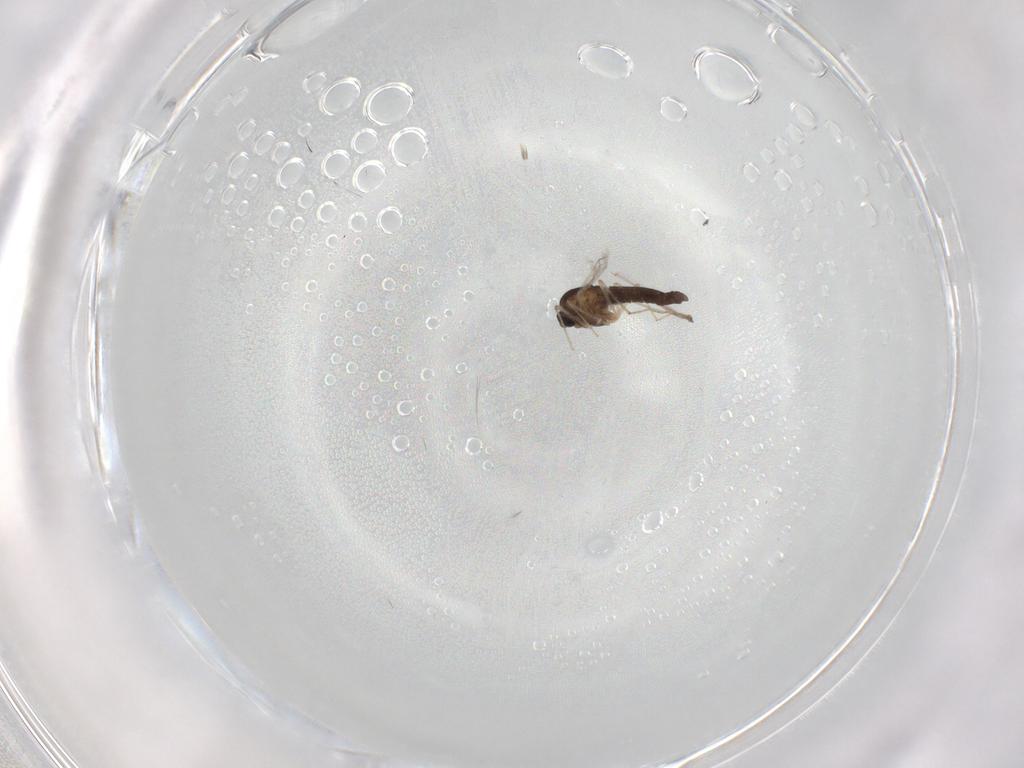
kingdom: Animalia
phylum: Arthropoda
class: Insecta
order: Diptera
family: Chironomidae
